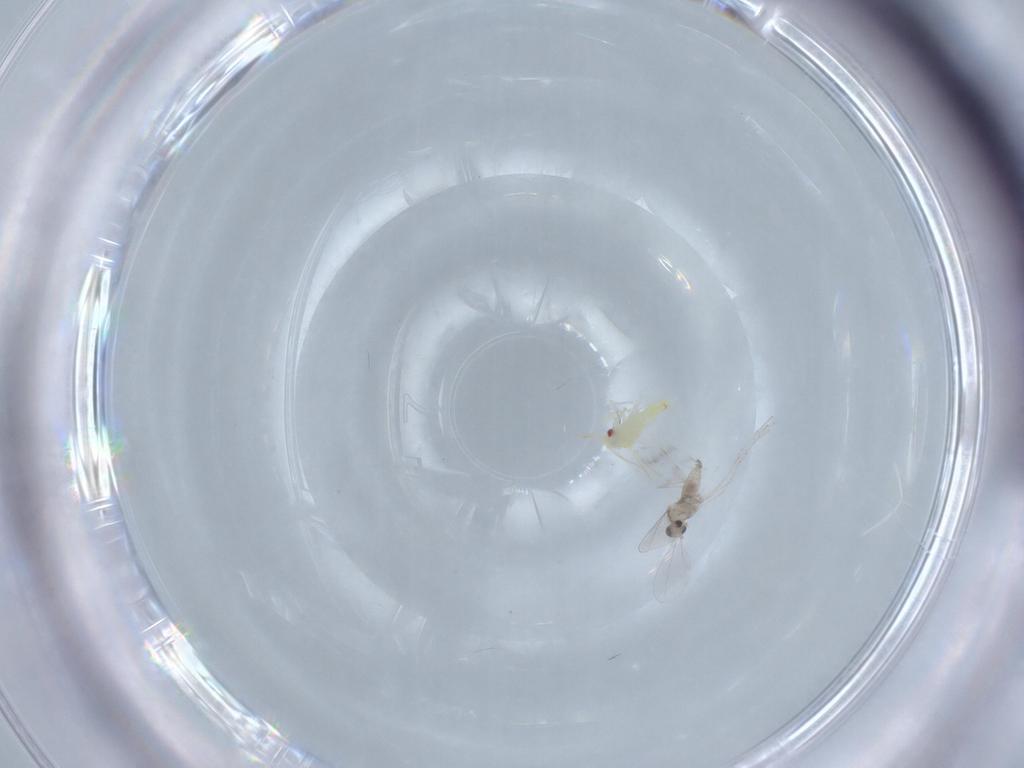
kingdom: Animalia
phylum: Arthropoda
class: Insecta
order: Diptera
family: Cecidomyiidae
